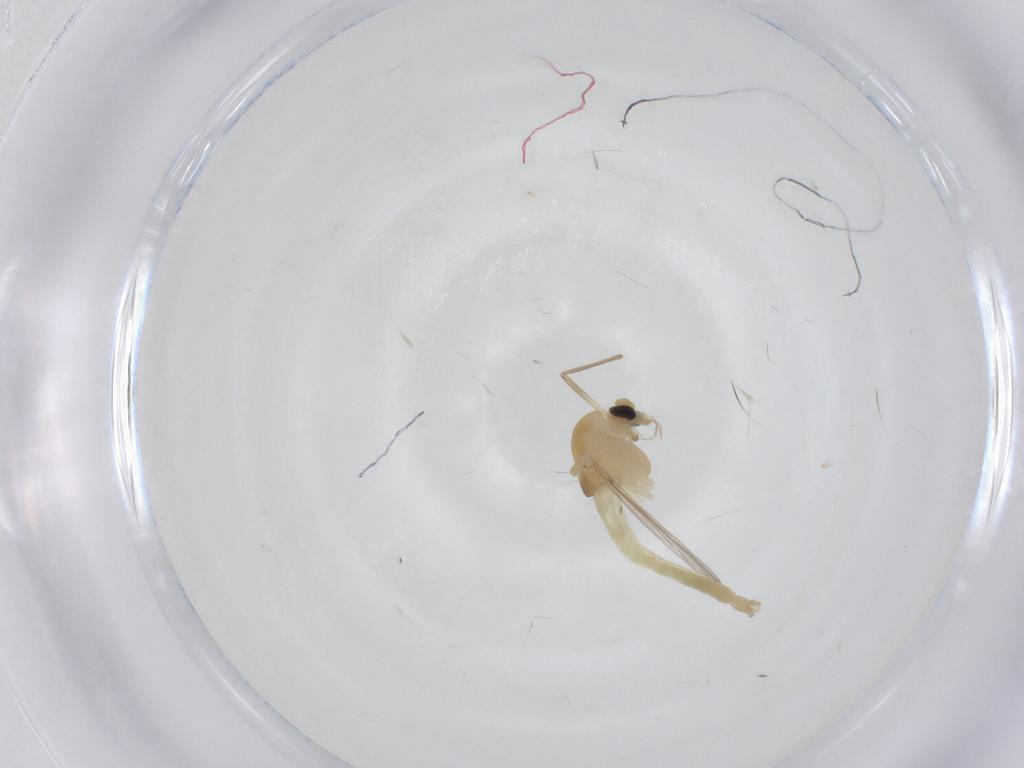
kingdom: Animalia
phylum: Arthropoda
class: Insecta
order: Diptera
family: Chironomidae
